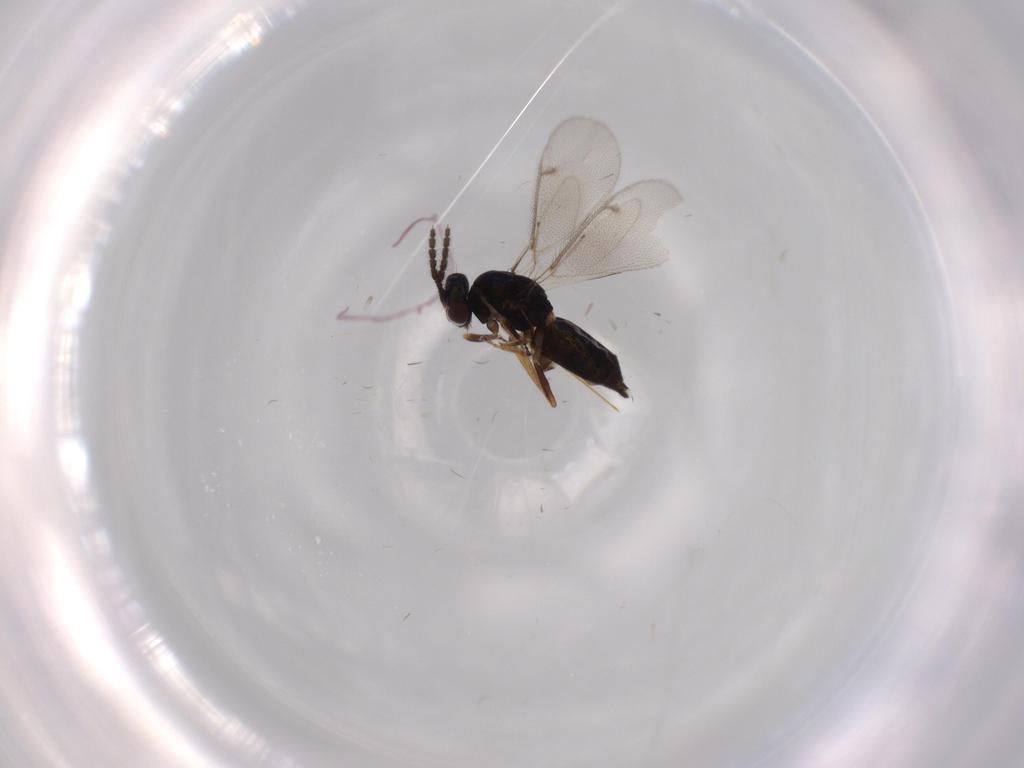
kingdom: Animalia
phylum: Arthropoda
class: Insecta
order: Hymenoptera
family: Eulophidae
